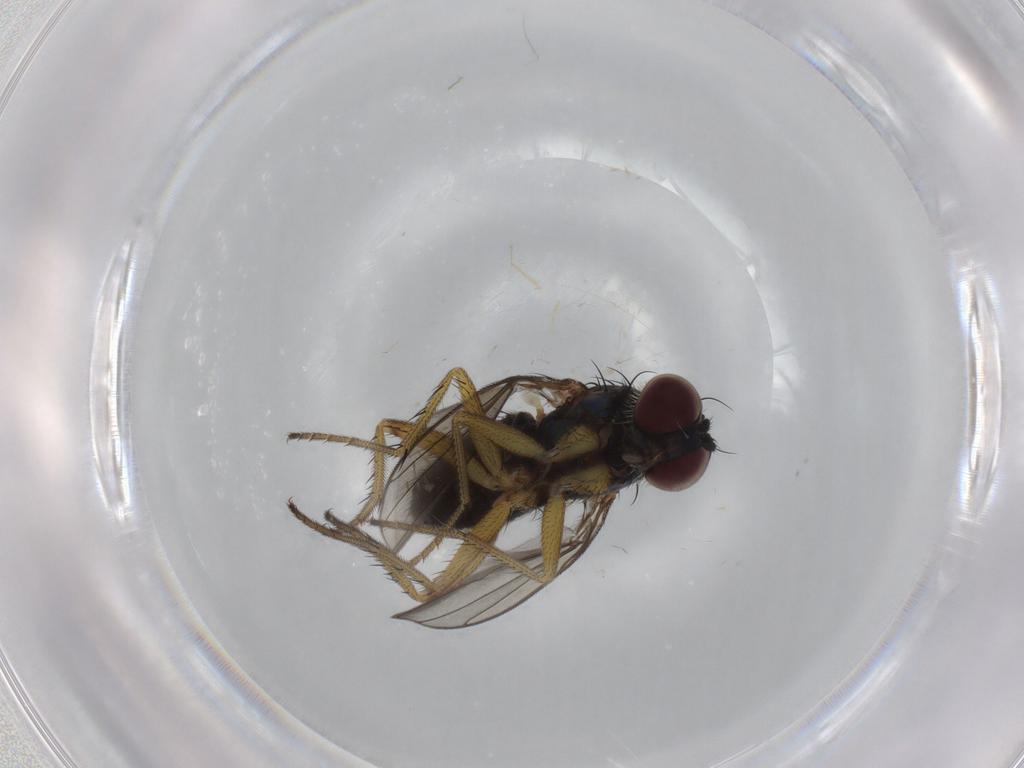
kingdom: Animalia
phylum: Arthropoda
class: Insecta
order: Diptera
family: Dolichopodidae
